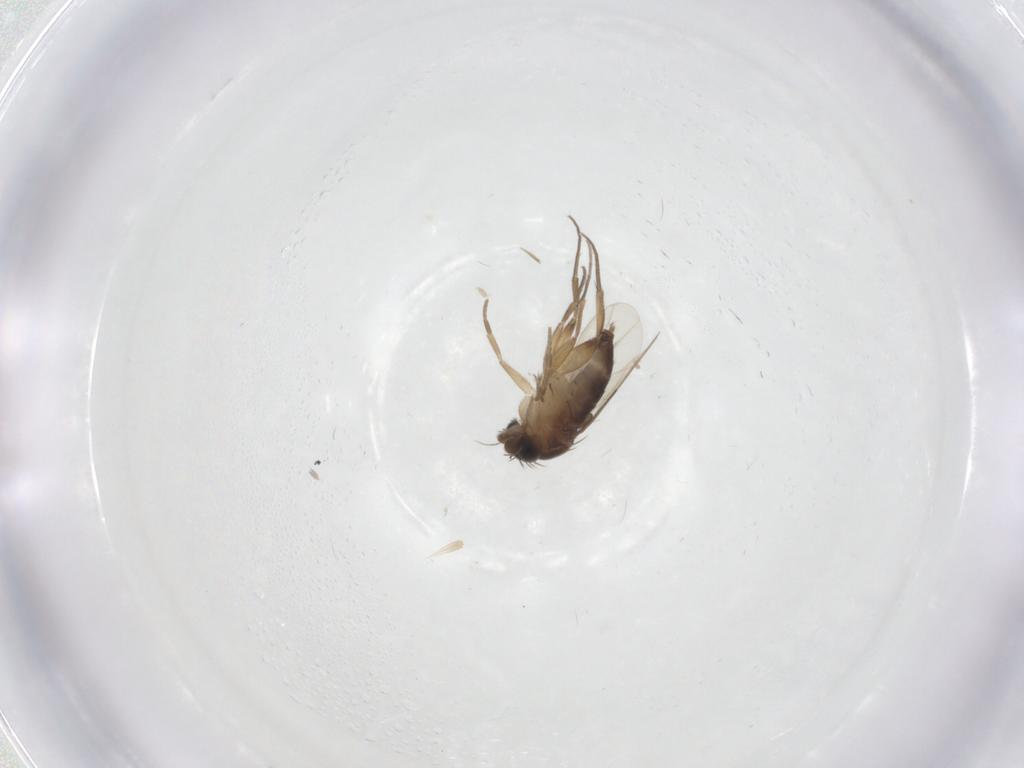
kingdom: Animalia
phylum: Arthropoda
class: Insecta
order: Diptera
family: Phoridae
